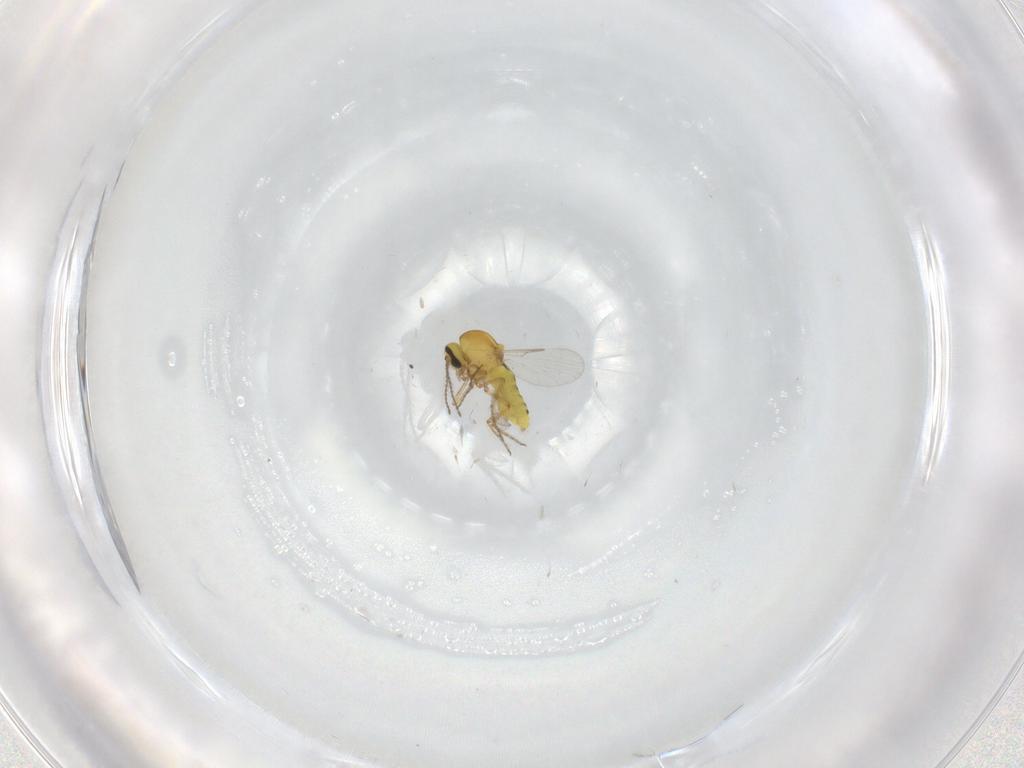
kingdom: Animalia
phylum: Arthropoda
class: Insecta
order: Diptera
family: Ceratopogonidae
